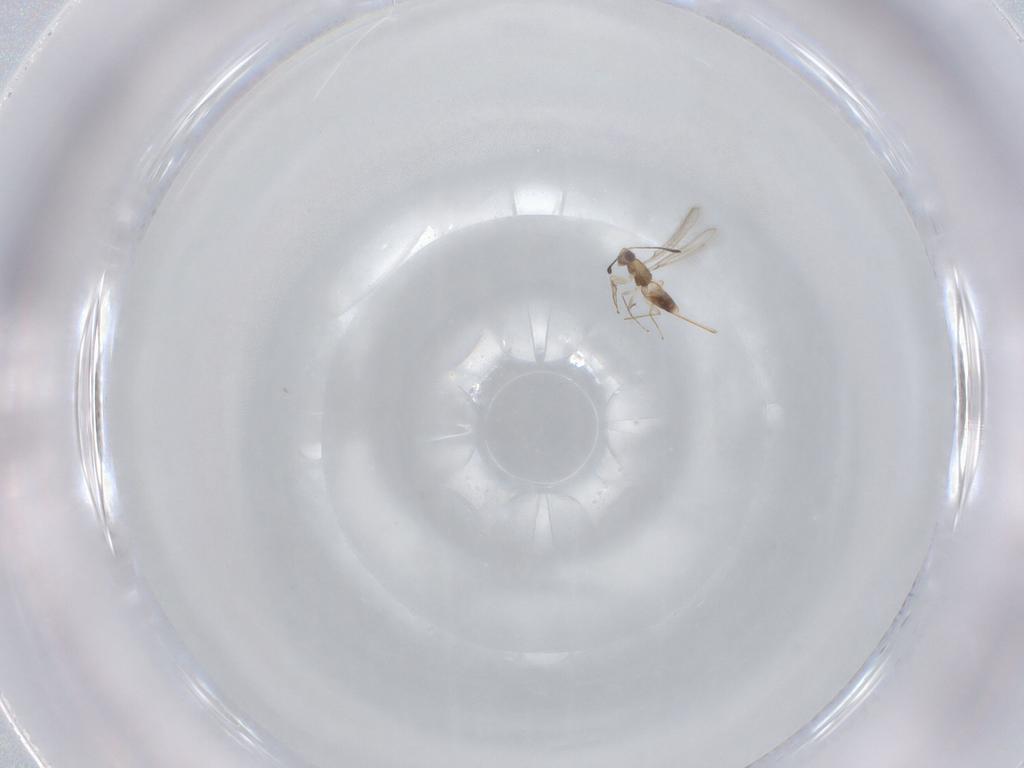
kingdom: Animalia
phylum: Arthropoda
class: Insecta
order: Hymenoptera
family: Mymaridae
